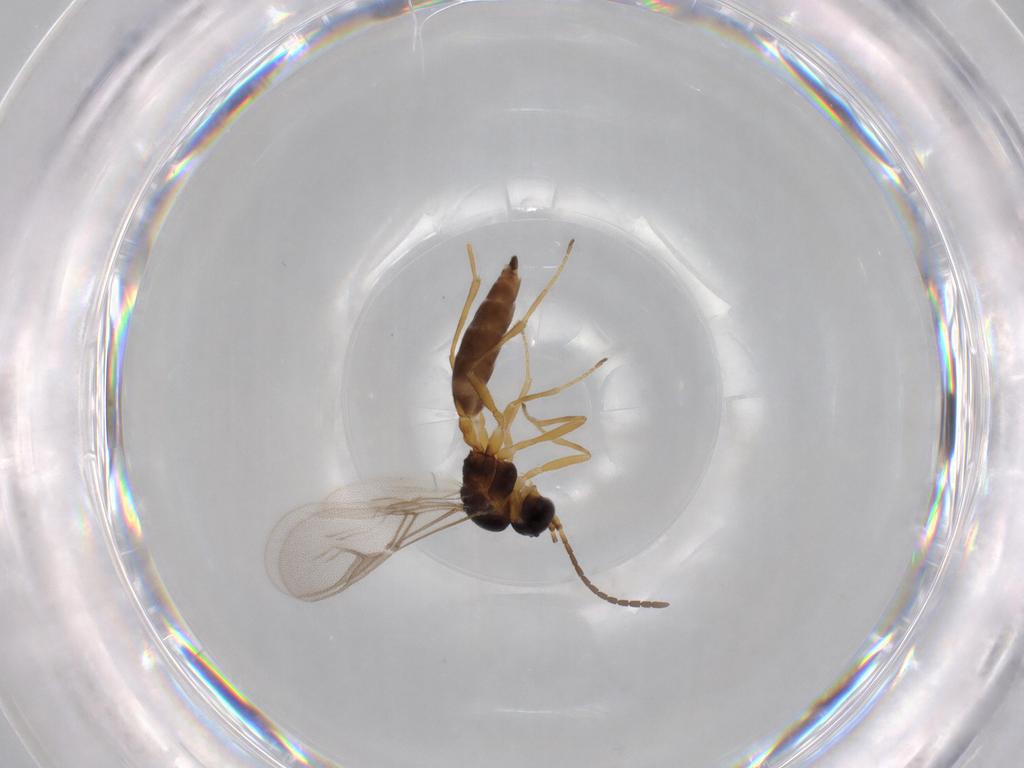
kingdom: Animalia
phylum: Arthropoda
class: Insecta
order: Hymenoptera
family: Braconidae
